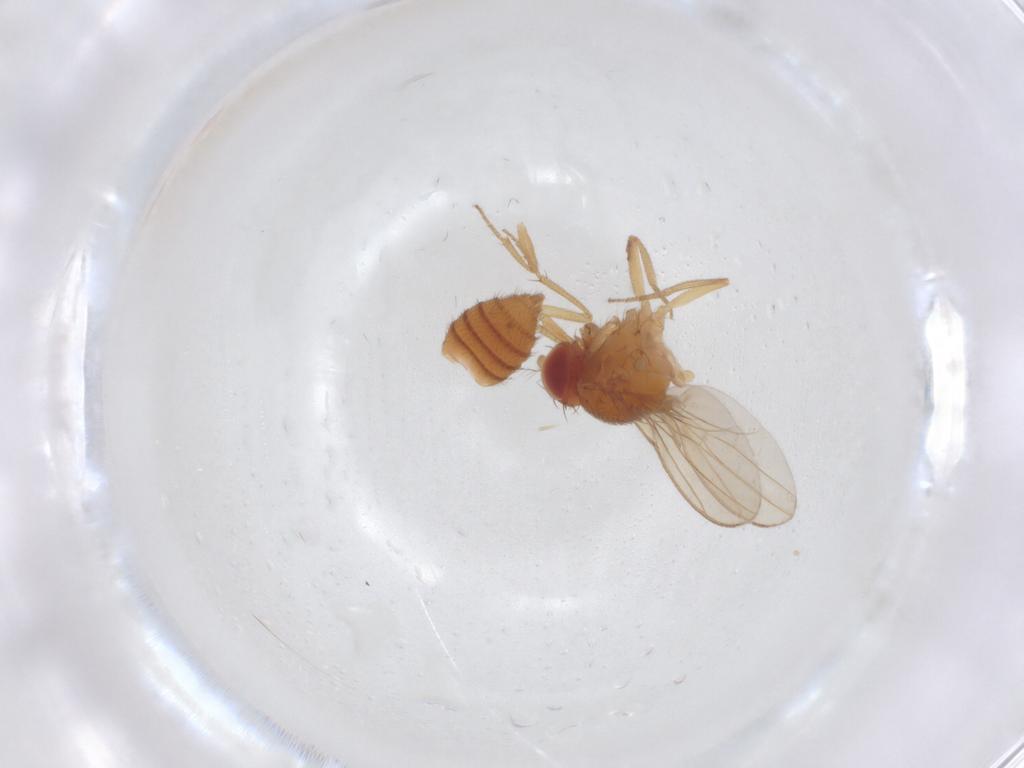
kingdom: Animalia
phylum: Arthropoda
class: Insecta
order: Diptera
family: Drosophilidae
